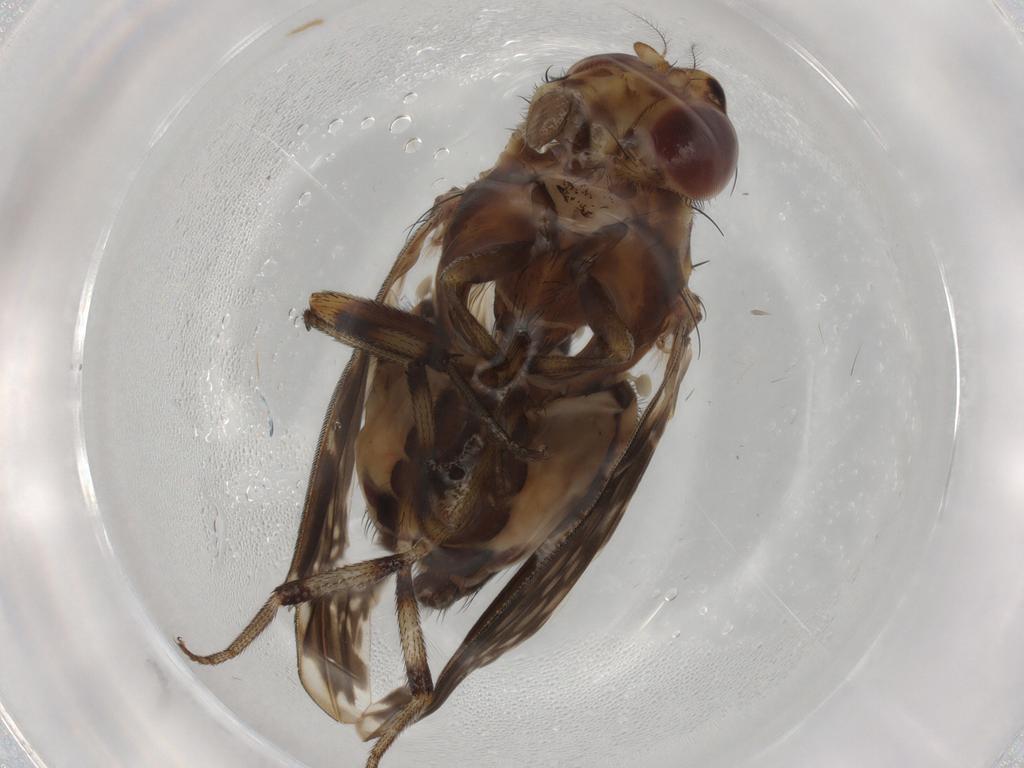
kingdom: Animalia
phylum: Arthropoda
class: Insecta
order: Diptera
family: Lauxaniidae
